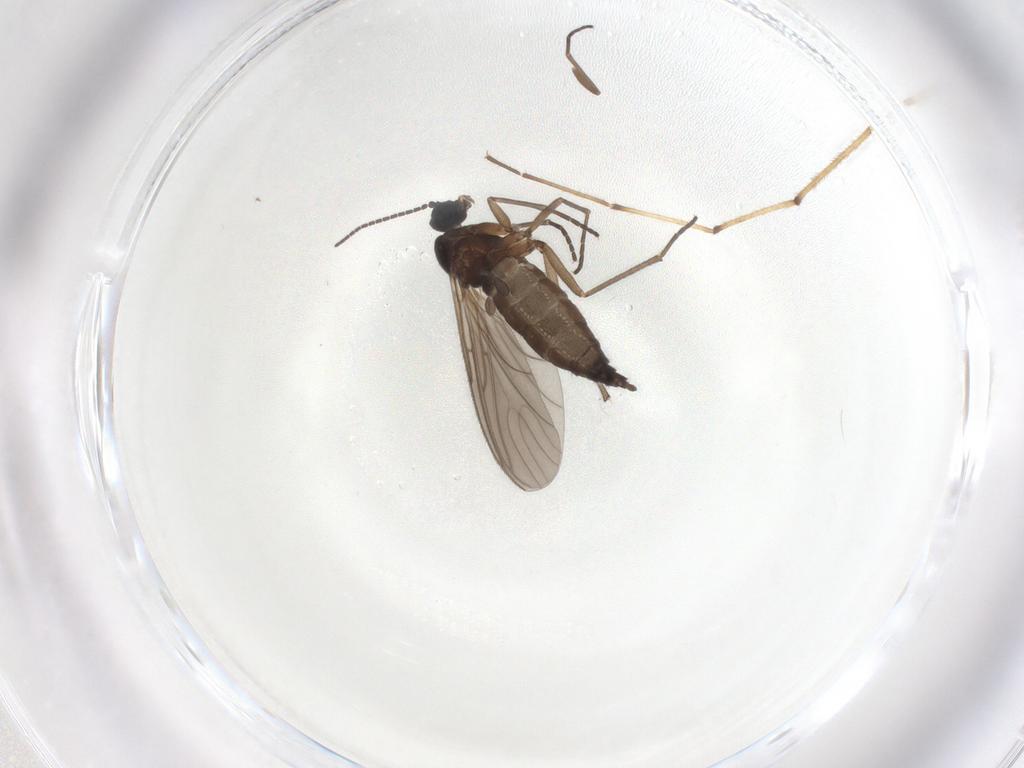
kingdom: Animalia
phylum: Arthropoda
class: Insecta
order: Diptera
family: Sciaridae
